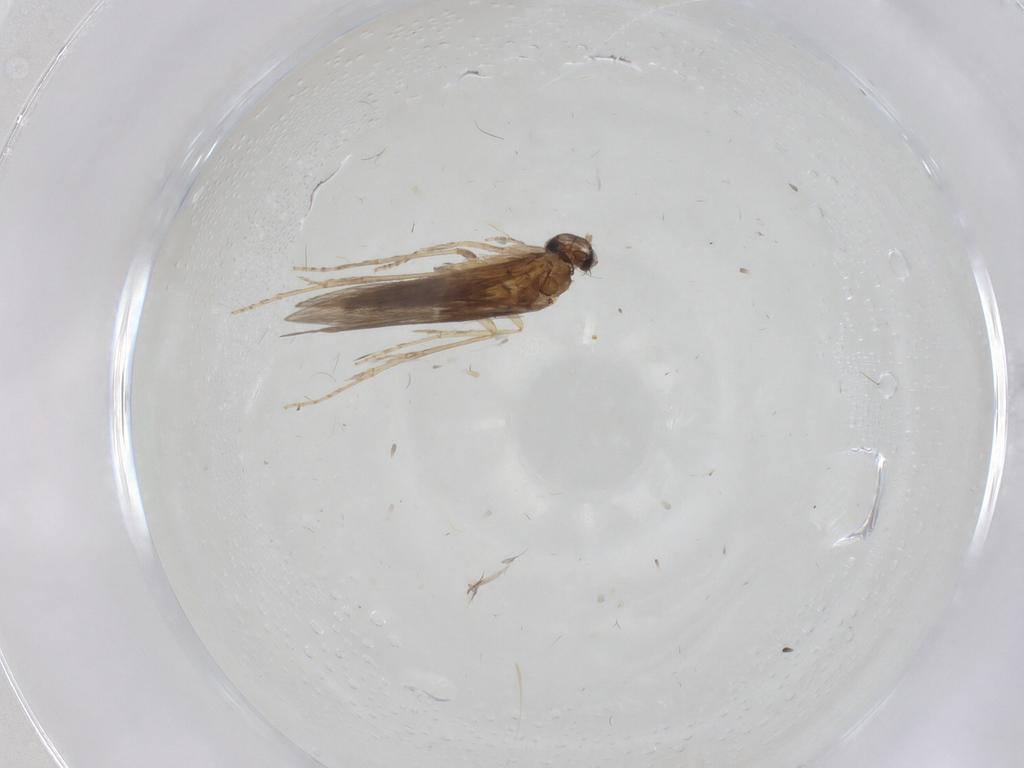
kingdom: Animalia
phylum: Arthropoda
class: Insecta
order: Trichoptera
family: Hydroptilidae
